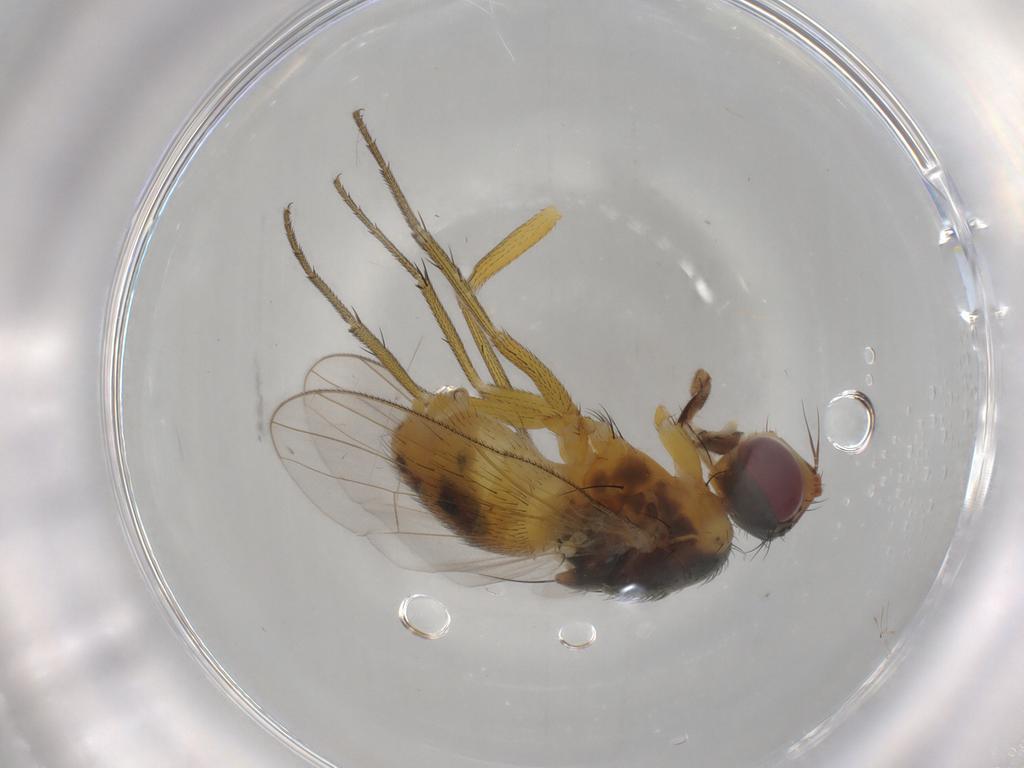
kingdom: Animalia
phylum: Arthropoda
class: Insecta
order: Diptera
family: Muscidae
